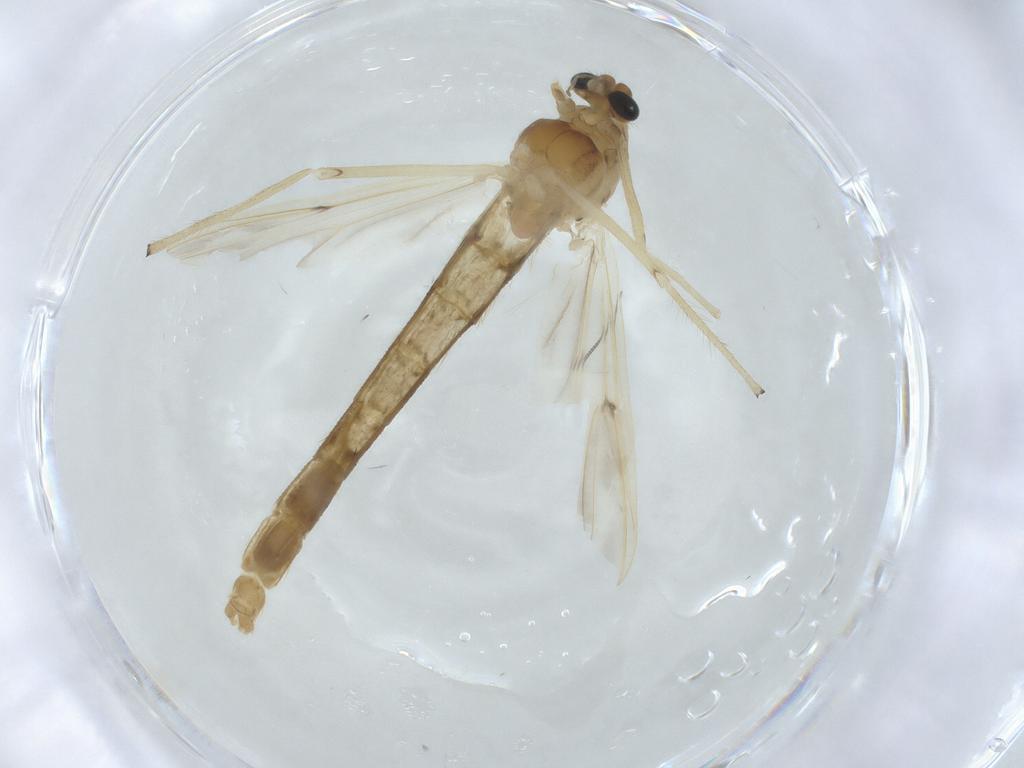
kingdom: Animalia
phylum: Arthropoda
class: Insecta
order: Diptera
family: Chironomidae
